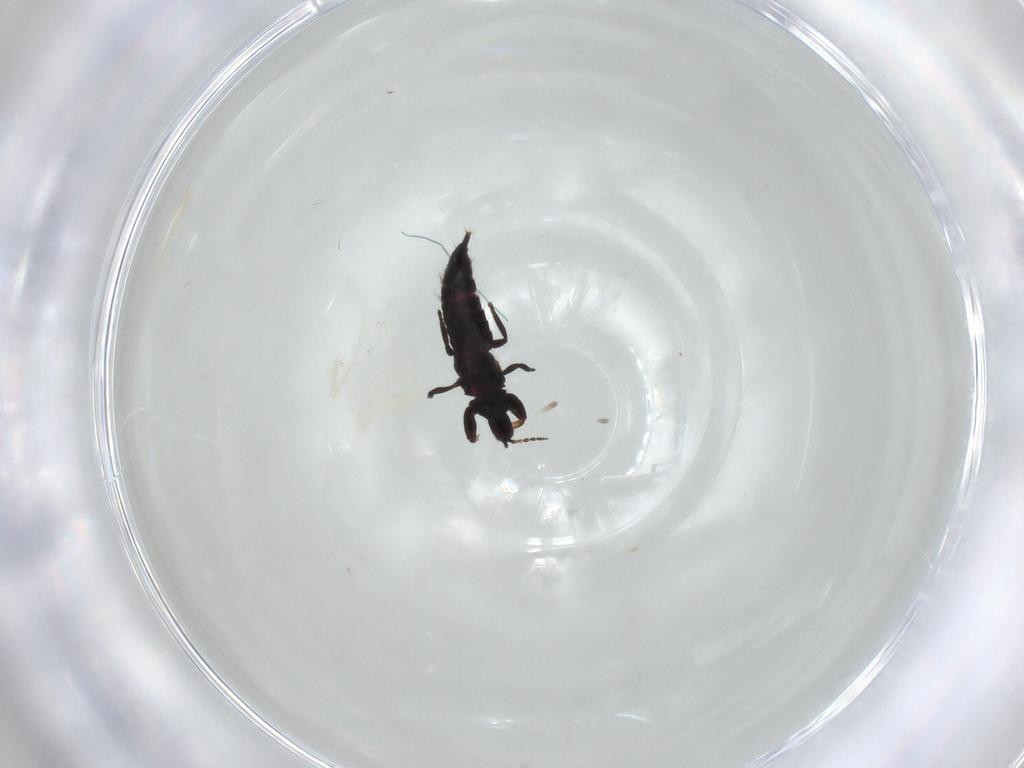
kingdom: Animalia
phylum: Arthropoda
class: Insecta
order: Thysanoptera
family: Phlaeothripidae
